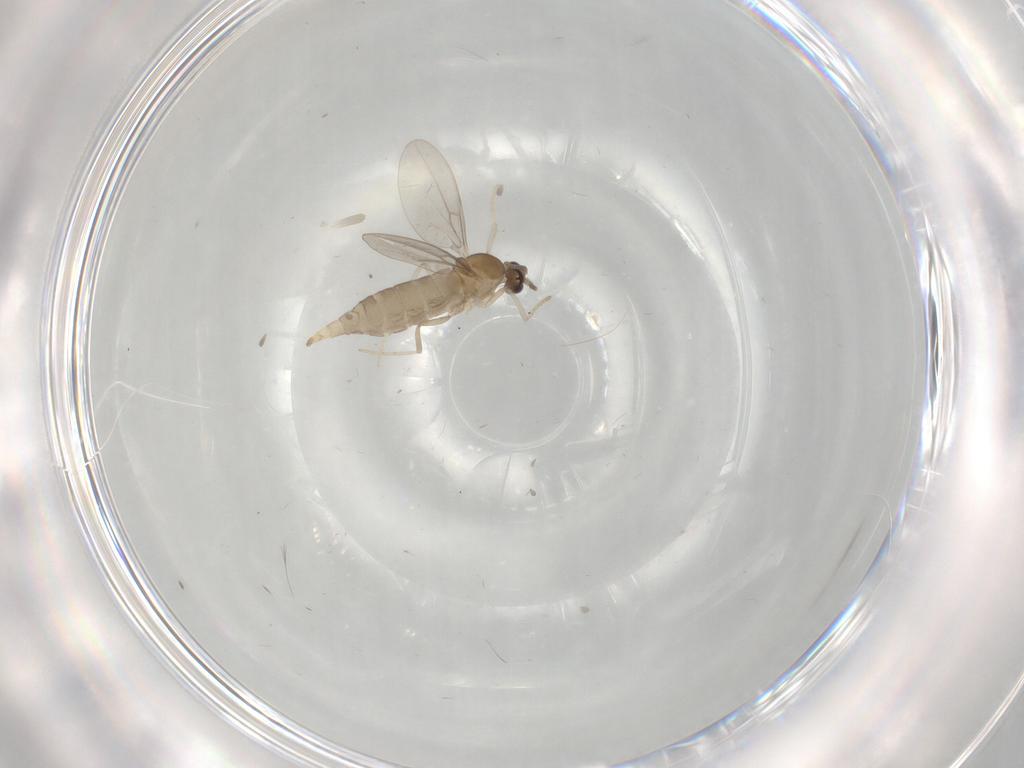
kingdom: Animalia
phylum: Arthropoda
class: Insecta
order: Diptera
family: Cecidomyiidae
